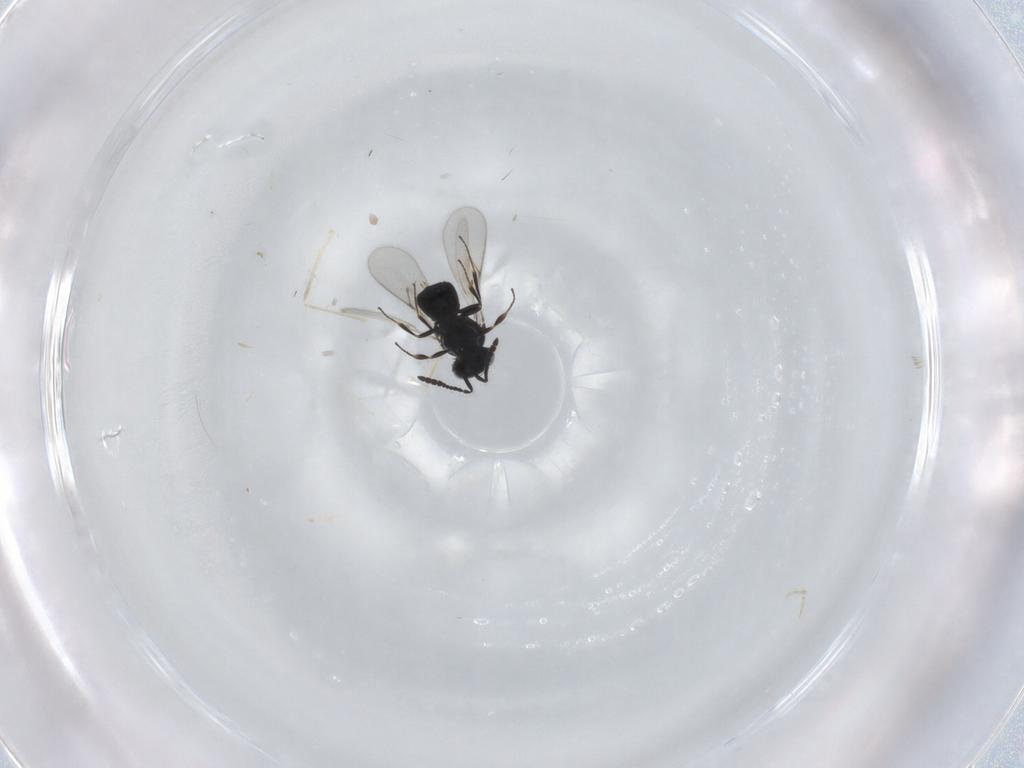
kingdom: Animalia
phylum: Arthropoda
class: Insecta
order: Hymenoptera
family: Scelionidae
